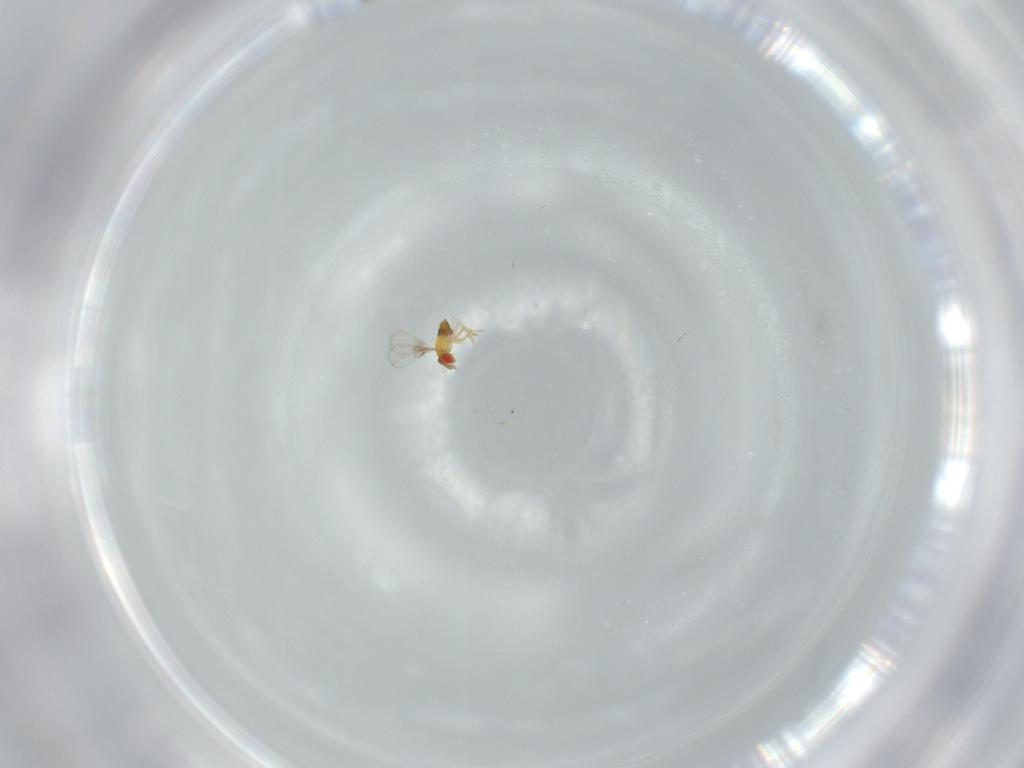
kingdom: Animalia
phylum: Arthropoda
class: Insecta
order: Hymenoptera
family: Trichogrammatidae
